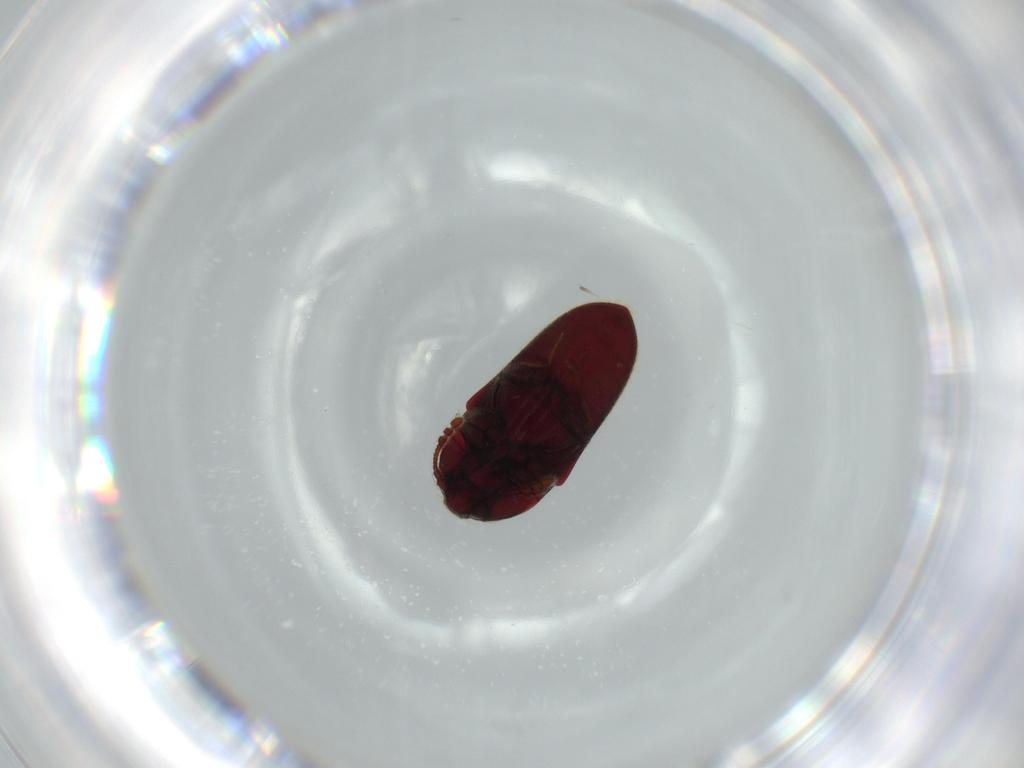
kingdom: Animalia
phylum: Arthropoda
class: Insecta
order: Coleoptera
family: Throscidae
